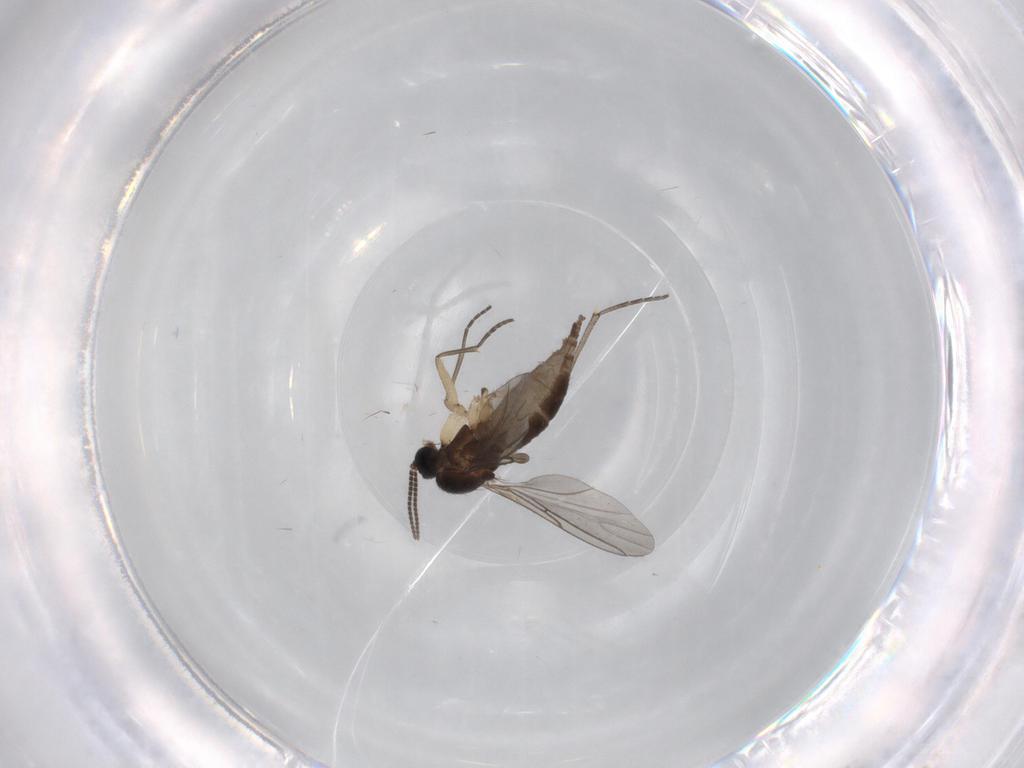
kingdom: Animalia
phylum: Arthropoda
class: Insecta
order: Diptera
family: Sciaridae
